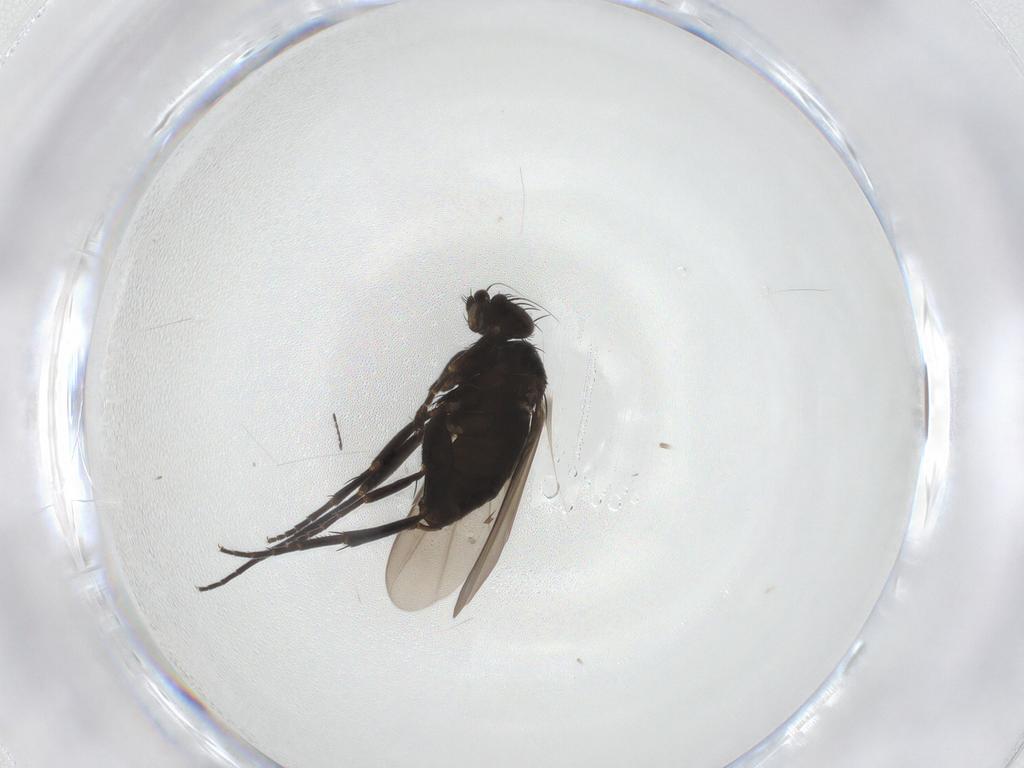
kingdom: Animalia
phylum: Arthropoda
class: Insecta
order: Diptera
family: Phoridae
